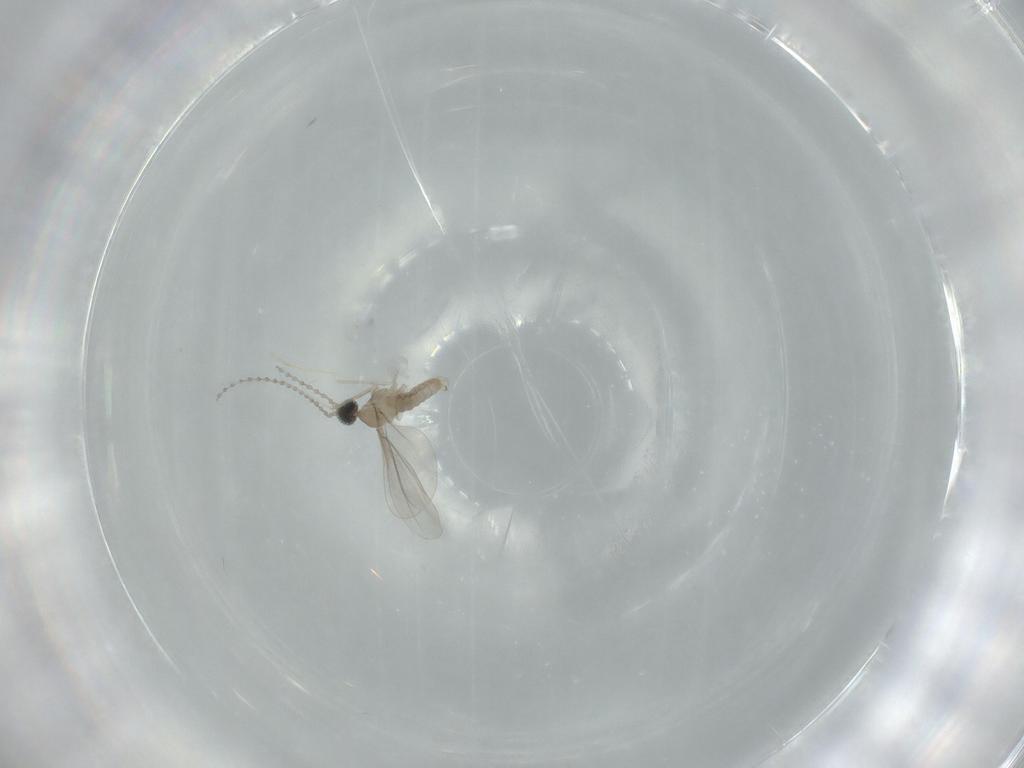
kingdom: Animalia
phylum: Arthropoda
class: Insecta
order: Diptera
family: Cecidomyiidae
